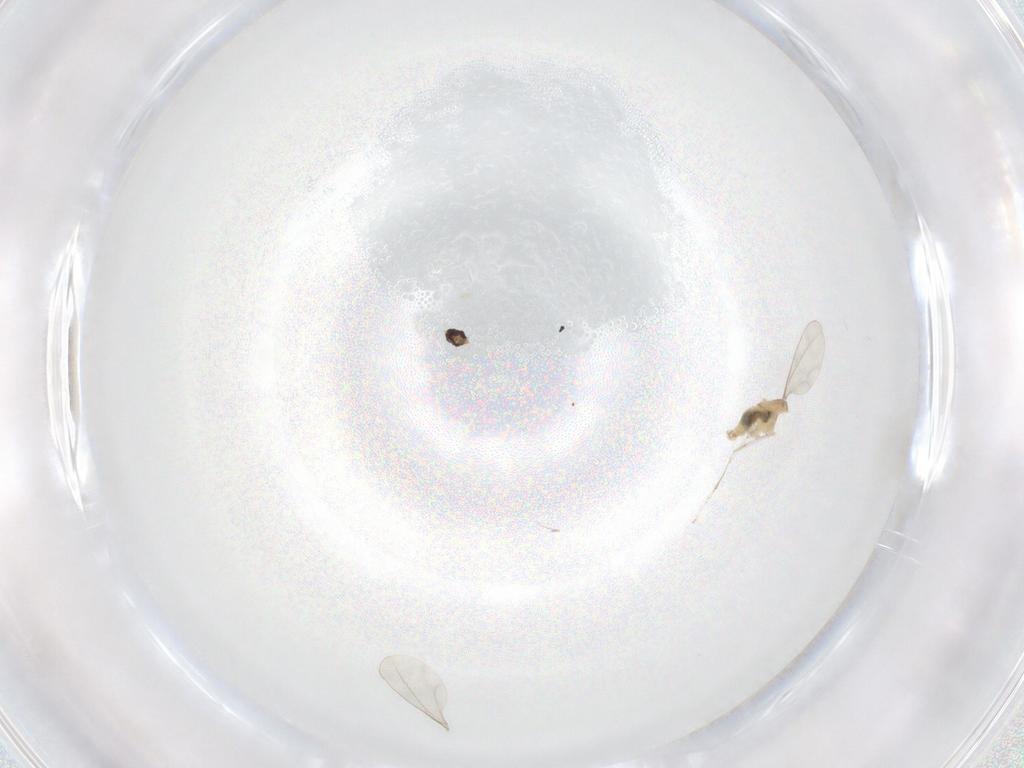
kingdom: Animalia
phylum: Arthropoda
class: Insecta
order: Diptera
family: Cecidomyiidae
